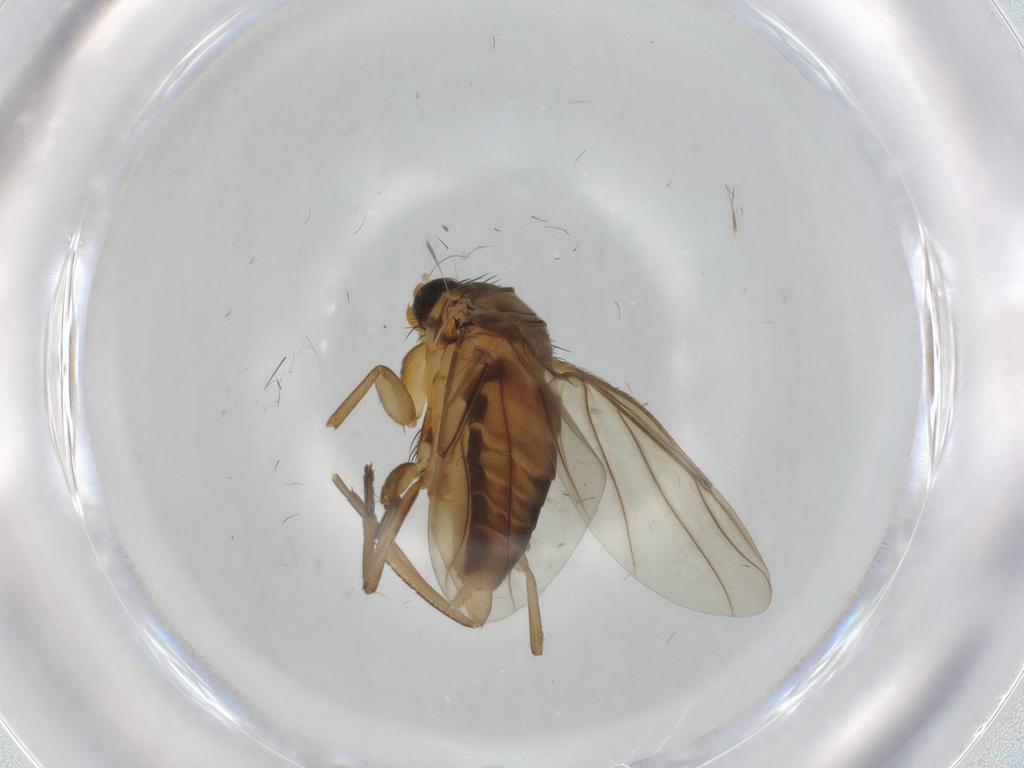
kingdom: Animalia
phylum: Arthropoda
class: Insecta
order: Diptera
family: Phoridae
